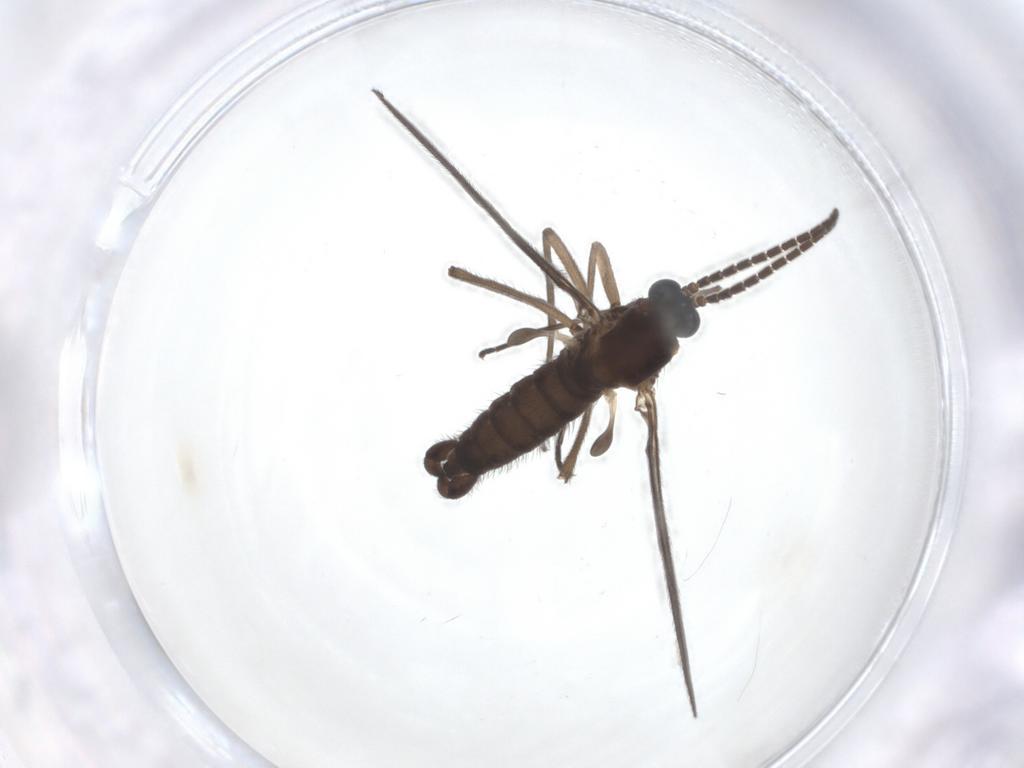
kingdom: Animalia
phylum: Arthropoda
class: Insecta
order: Diptera
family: Sciaridae
